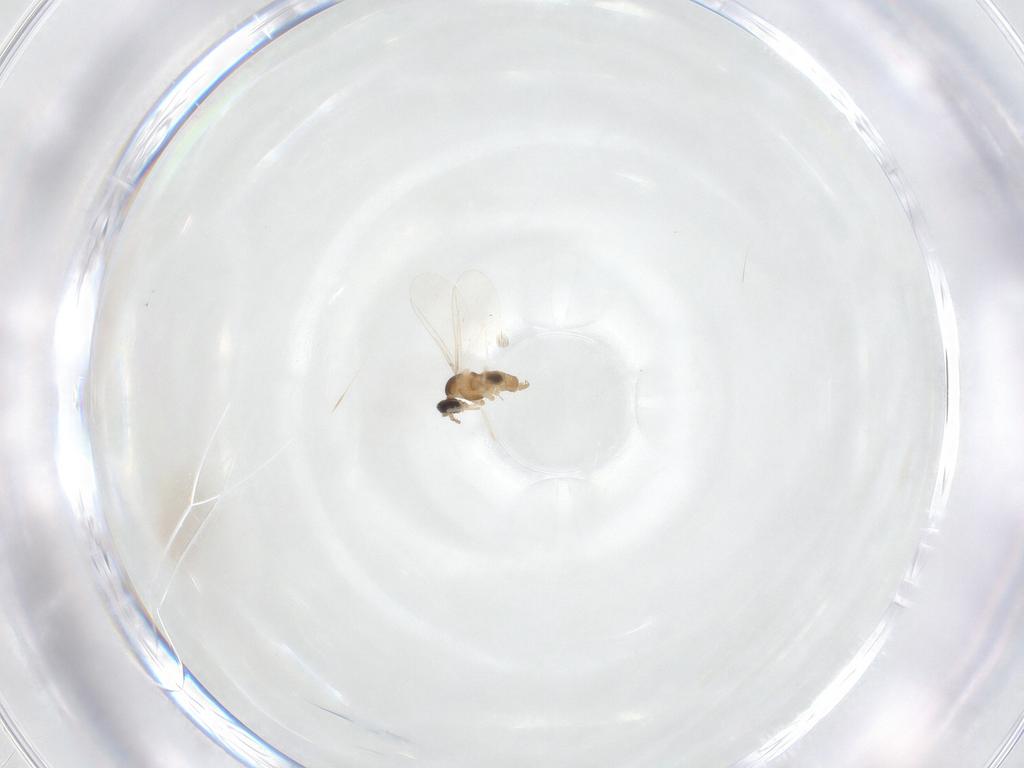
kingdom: Animalia
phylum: Arthropoda
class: Insecta
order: Diptera
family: Cecidomyiidae
